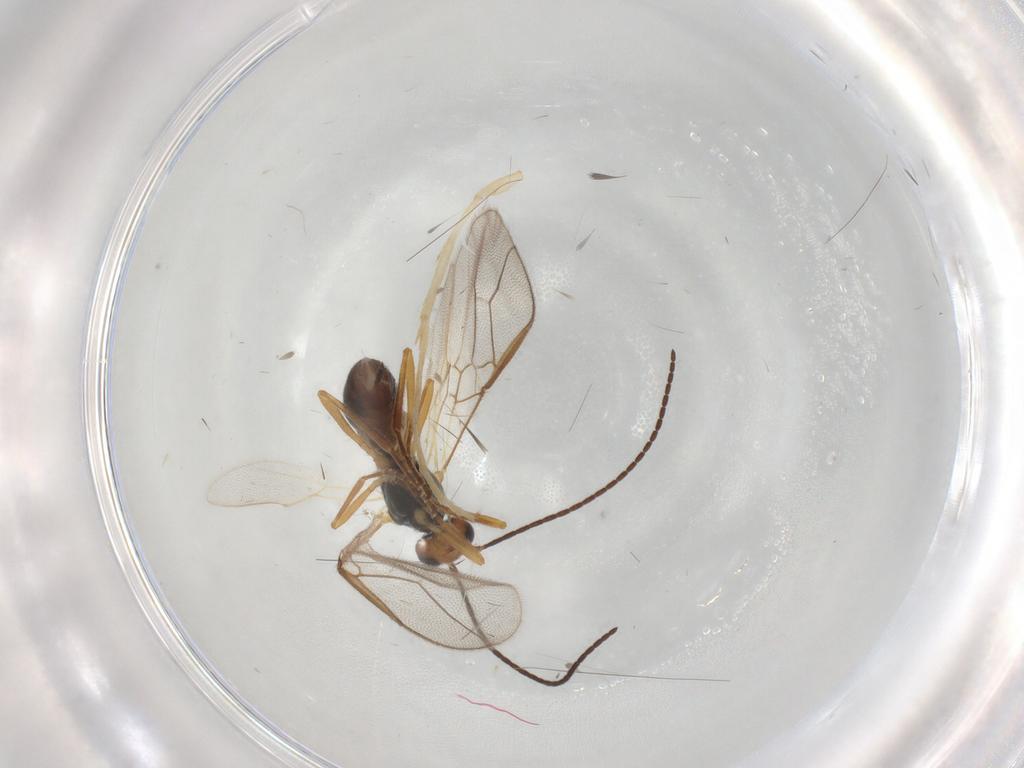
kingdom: Animalia
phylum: Arthropoda
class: Insecta
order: Hymenoptera
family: Braconidae
